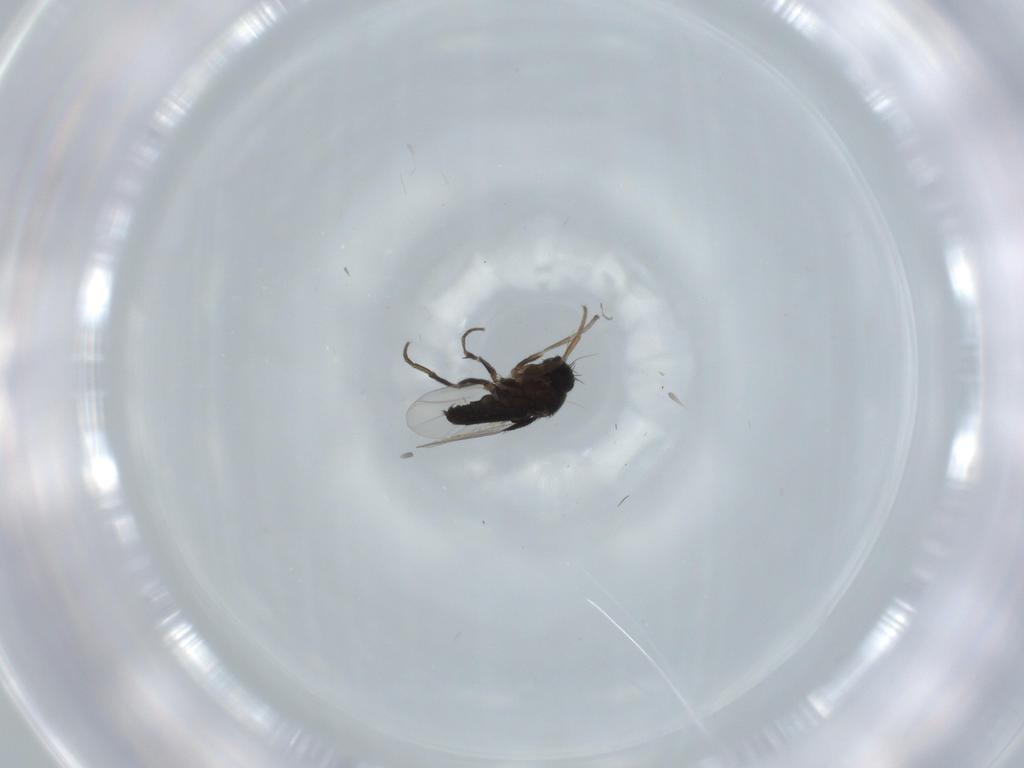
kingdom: Animalia
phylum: Arthropoda
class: Insecta
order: Diptera
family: Phoridae
